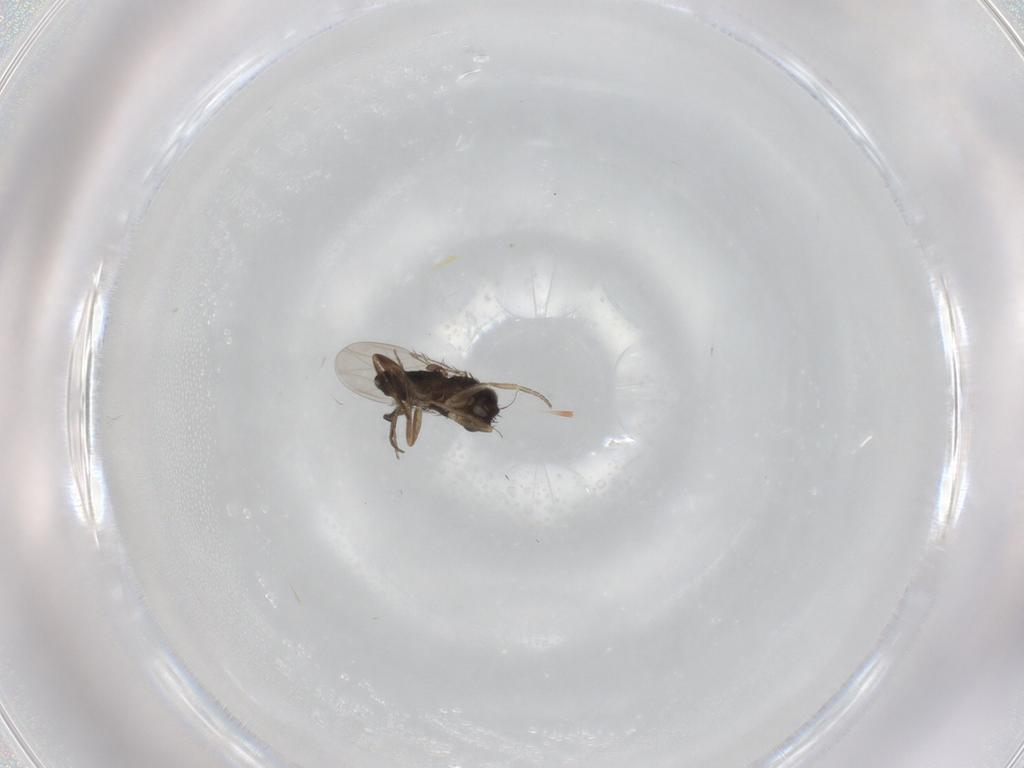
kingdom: Animalia
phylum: Arthropoda
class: Insecta
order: Diptera
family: Phoridae
